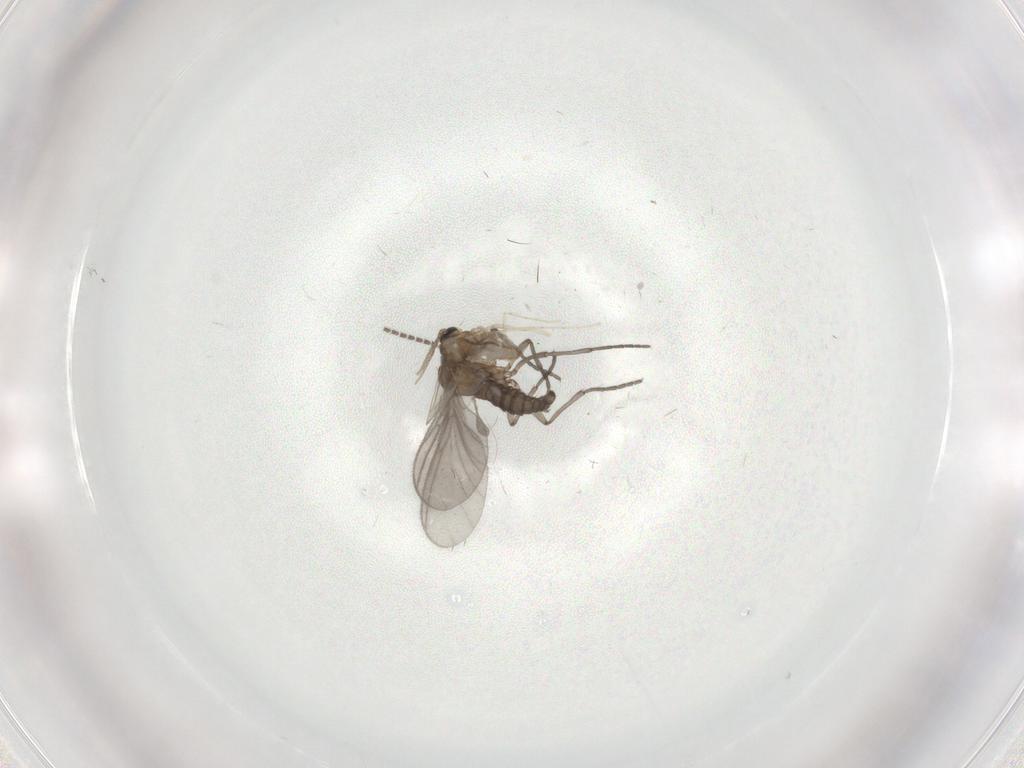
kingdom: Animalia
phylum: Arthropoda
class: Insecta
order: Diptera
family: Sciaridae
